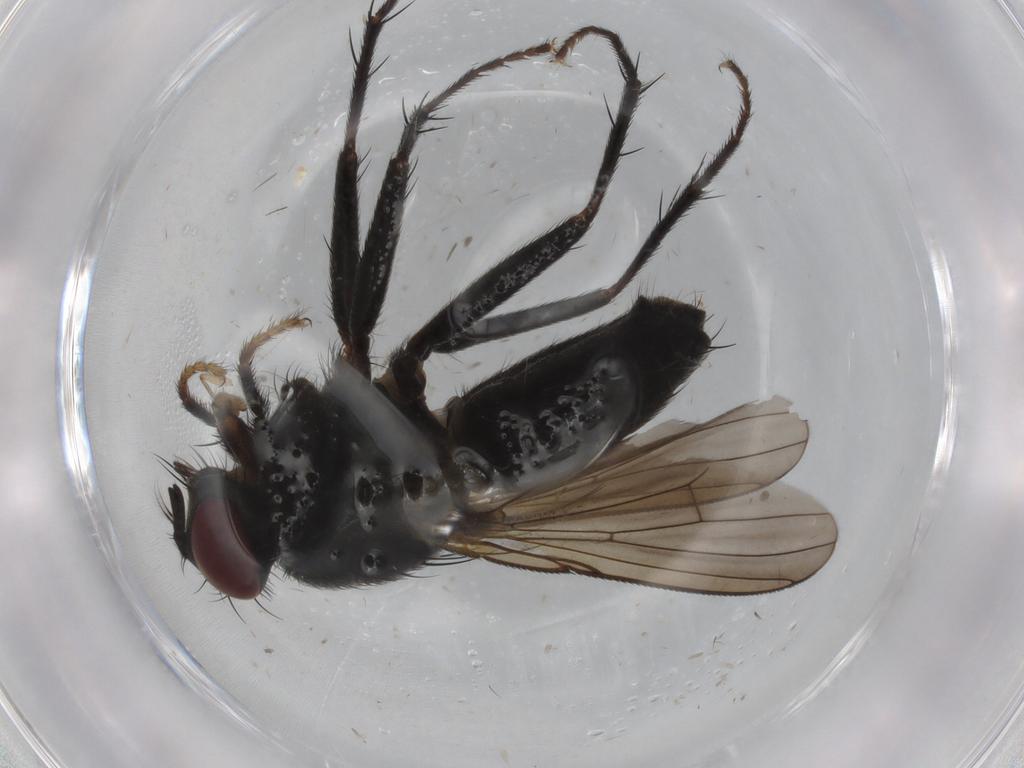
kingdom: Animalia
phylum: Arthropoda
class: Insecta
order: Diptera
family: Muscidae
